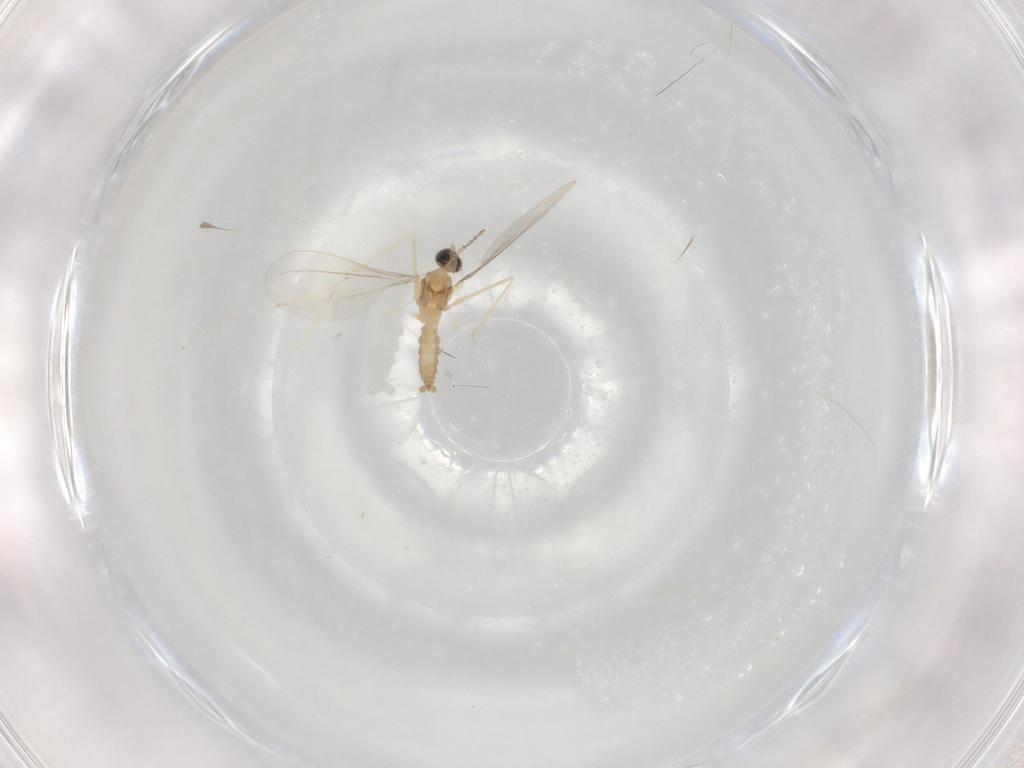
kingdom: Animalia
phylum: Arthropoda
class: Insecta
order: Diptera
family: Cecidomyiidae
